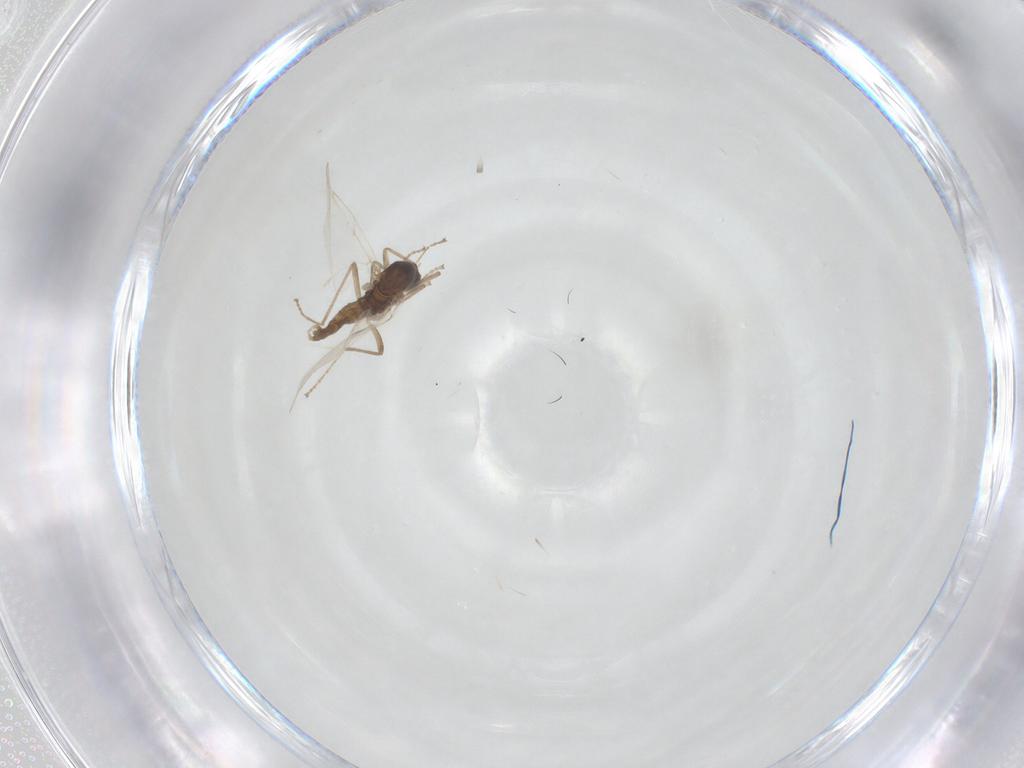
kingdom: Animalia
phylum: Arthropoda
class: Insecta
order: Diptera
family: Cecidomyiidae
